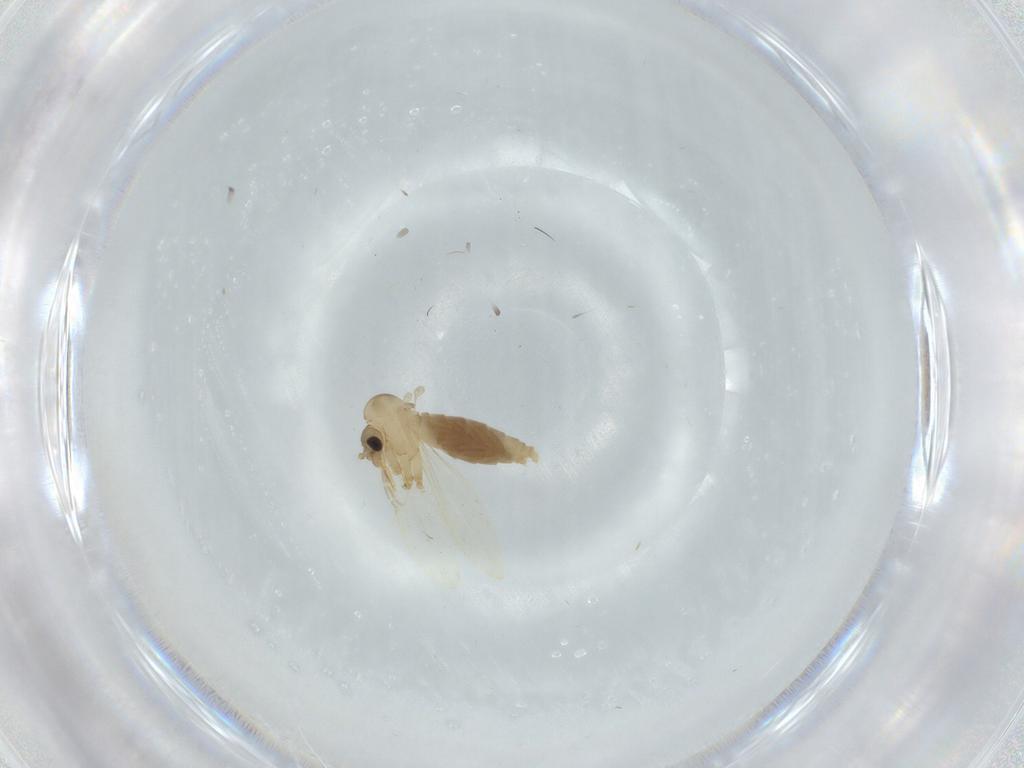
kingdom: Animalia
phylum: Arthropoda
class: Insecta
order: Diptera
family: Psychodidae
